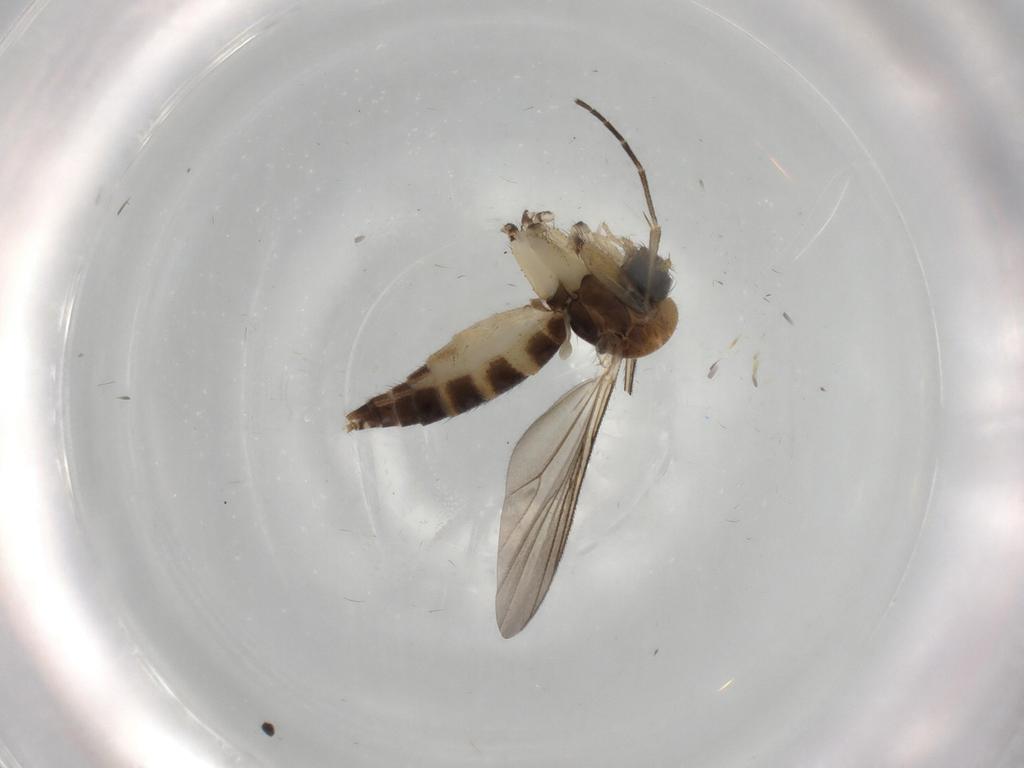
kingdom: Animalia
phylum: Arthropoda
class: Insecta
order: Diptera
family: Mycetophilidae
